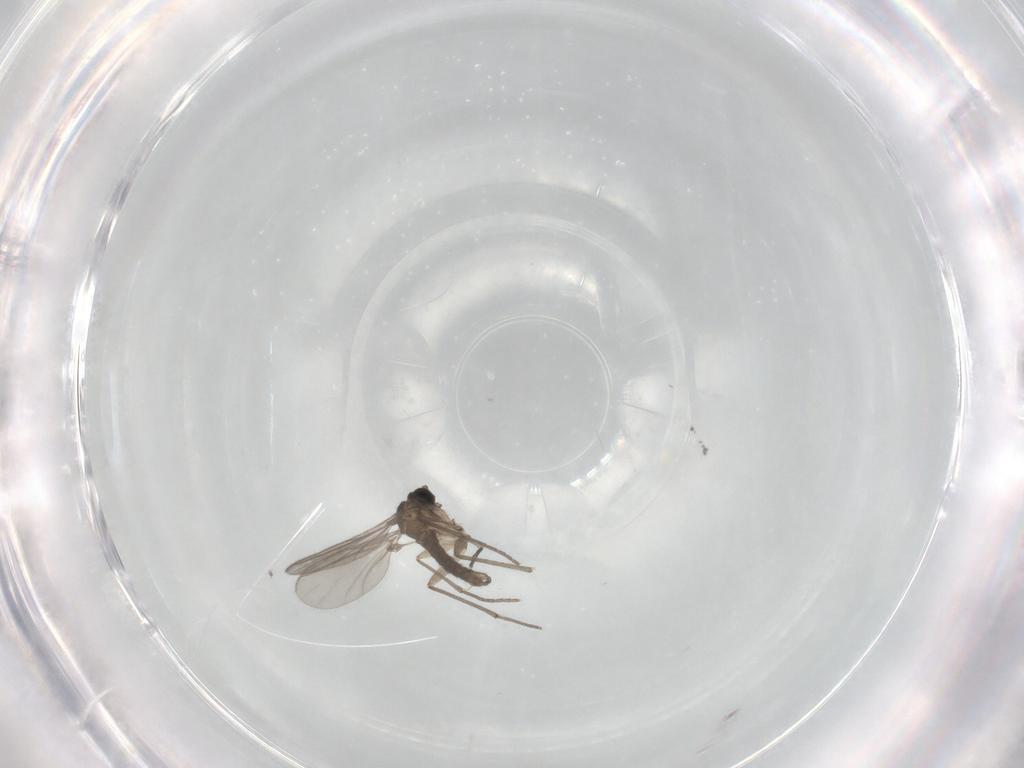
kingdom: Animalia
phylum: Arthropoda
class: Insecta
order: Diptera
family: Sciaridae
